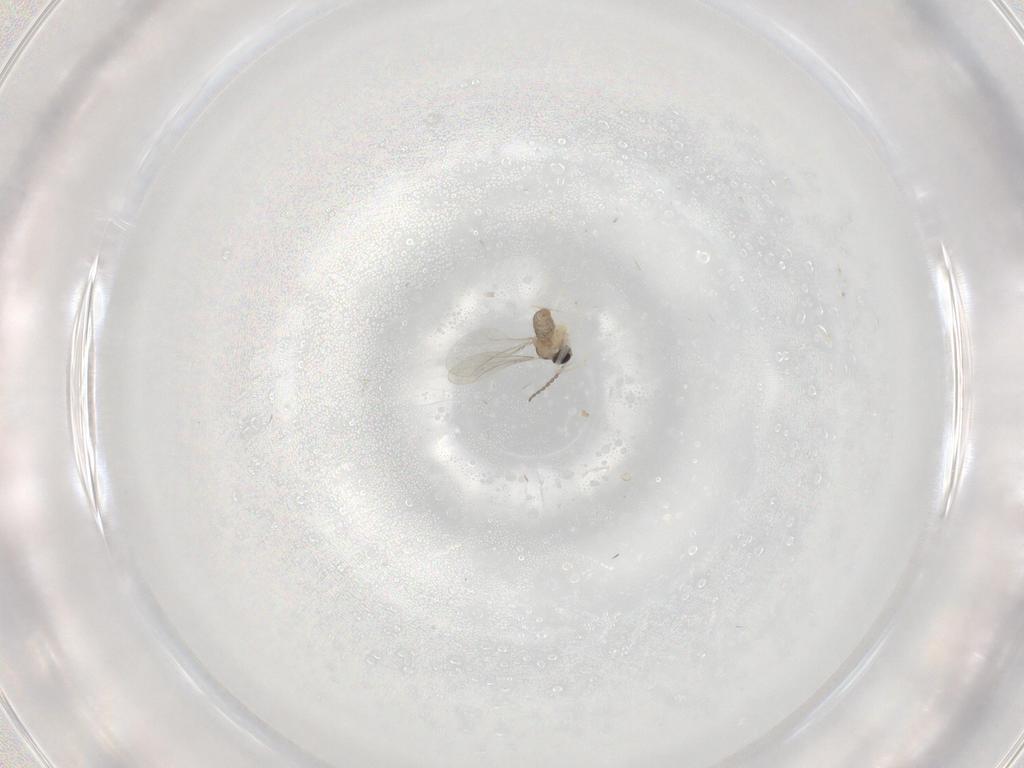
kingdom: Animalia
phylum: Arthropoda
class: Insecta
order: Diptera
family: Cecidomyiidae
